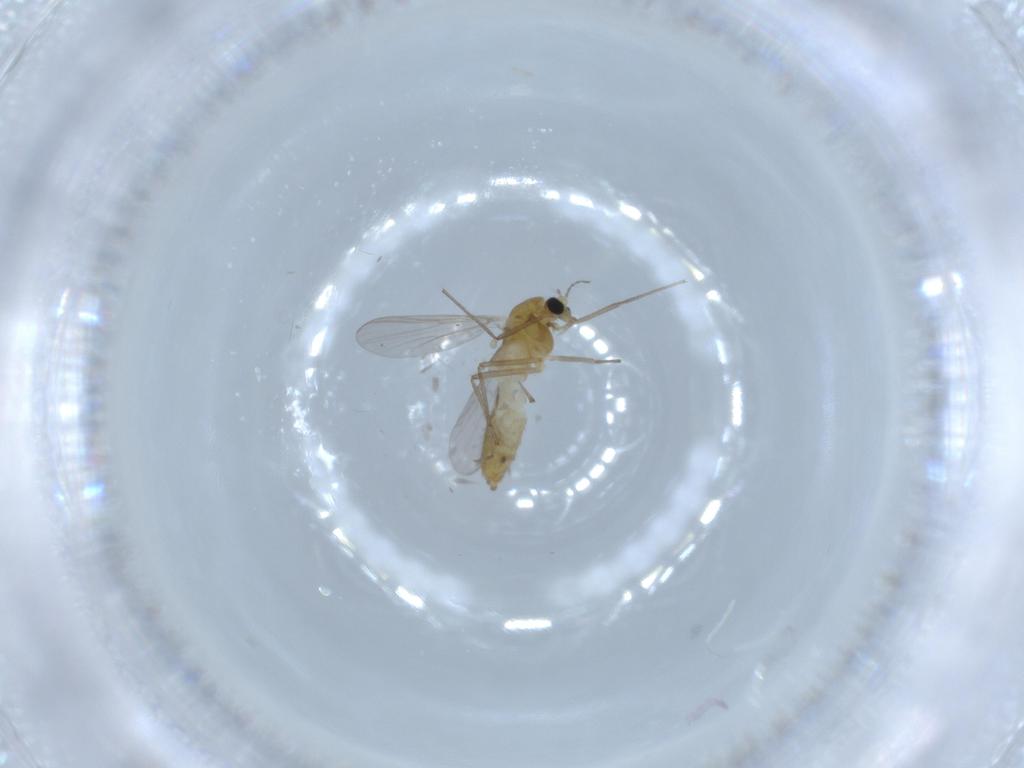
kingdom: Animalia
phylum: Arthropoda
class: Insecta
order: Diptera
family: Chironomidae
